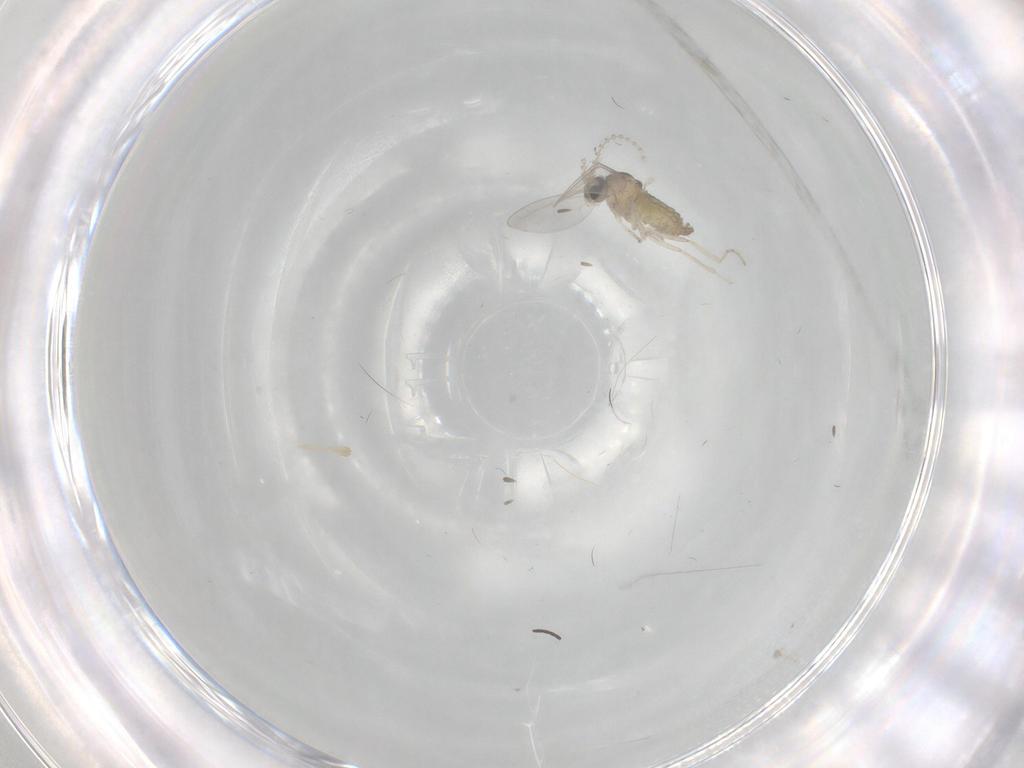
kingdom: Animalia
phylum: Arthropoda
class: Insecta
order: Diptera
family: Cecidomyiidae
